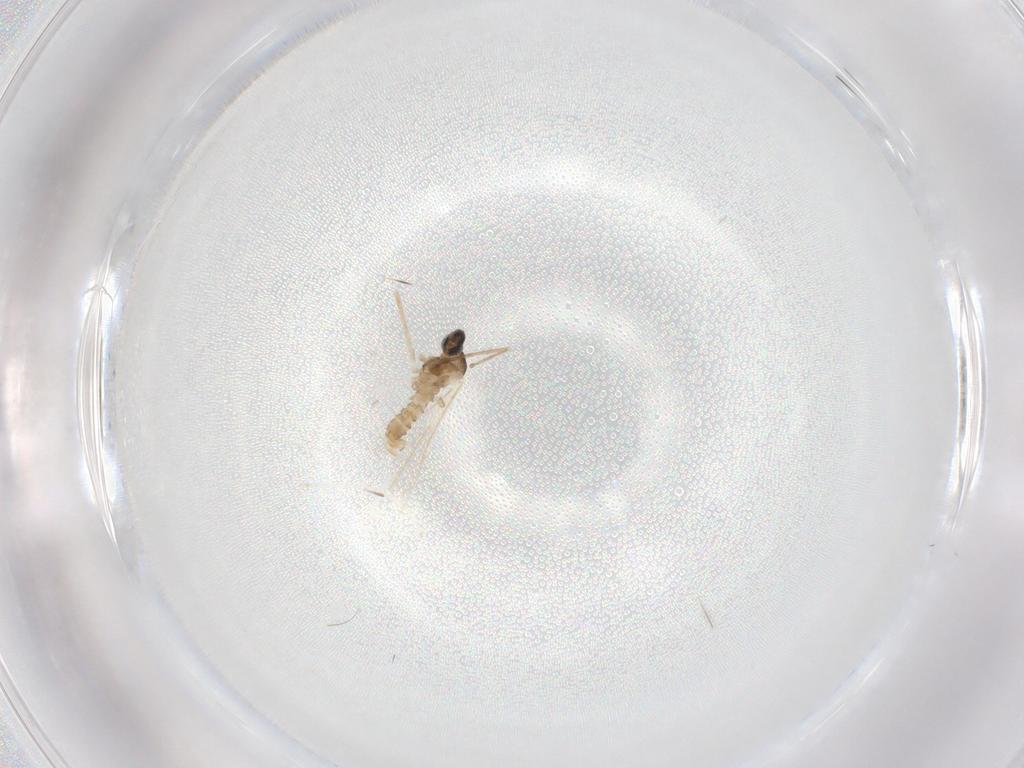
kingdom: Animalia
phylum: Arthropoda
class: Insecta
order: Diptera
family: Cecidomyiidae
